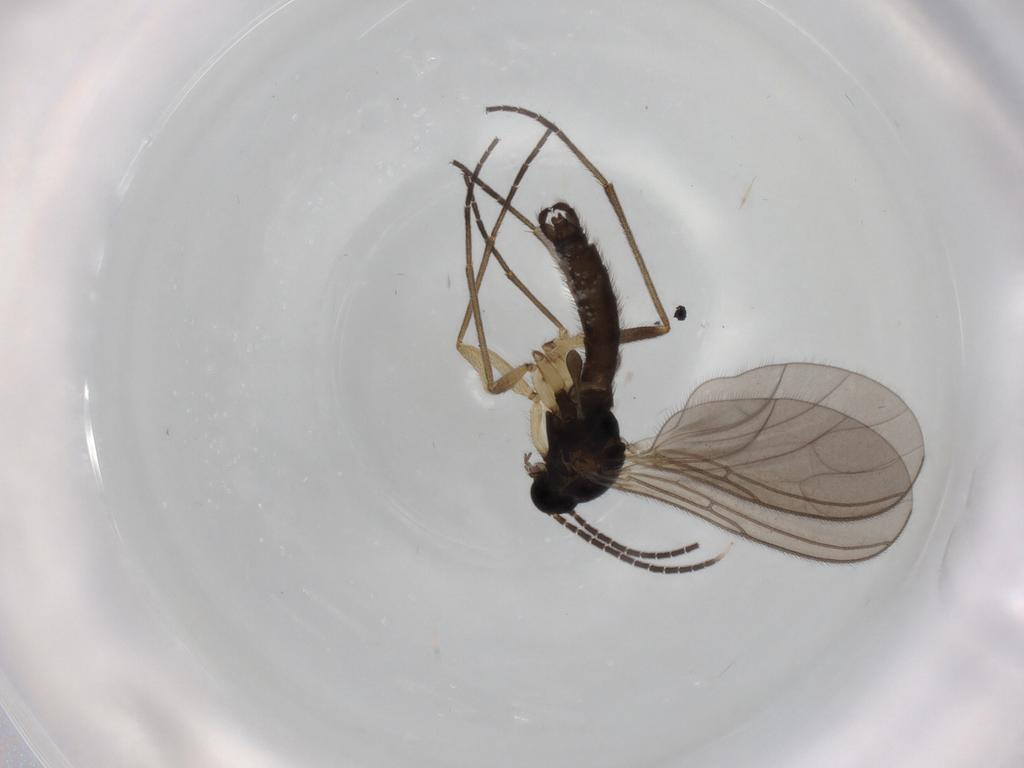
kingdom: Animalia
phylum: Arthropoda
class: Insecta
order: Diptera
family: Sciaridae
